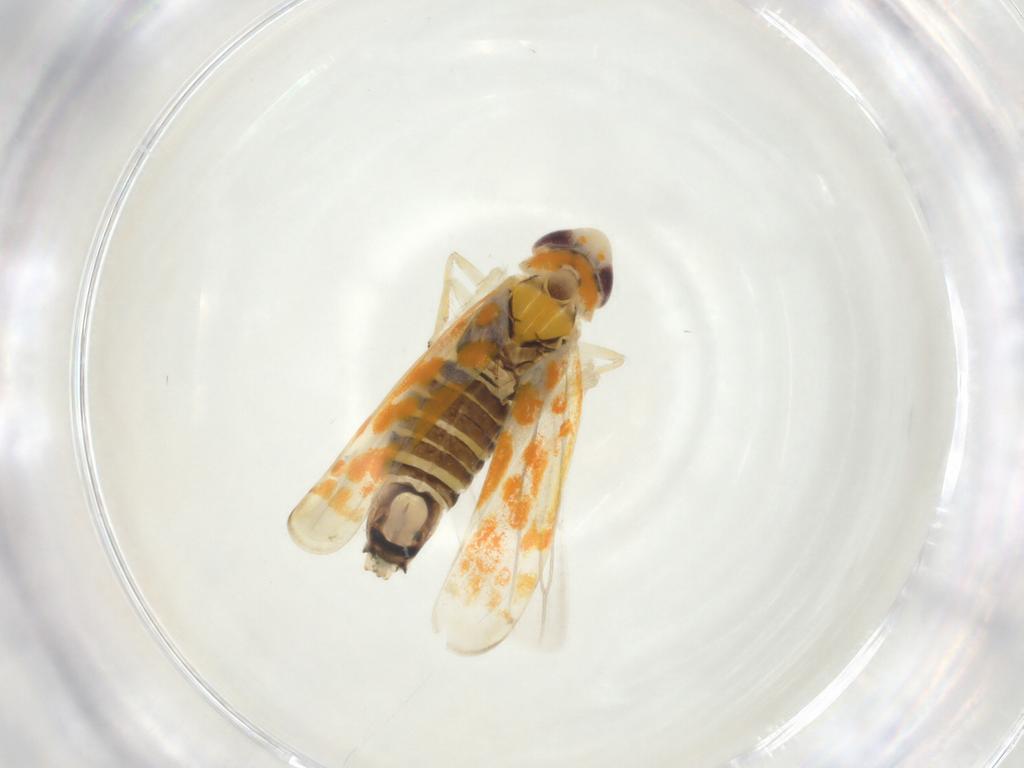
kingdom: Animalia
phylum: Arthropoda
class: Insecta
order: Hemiptera
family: Cicadellidae
